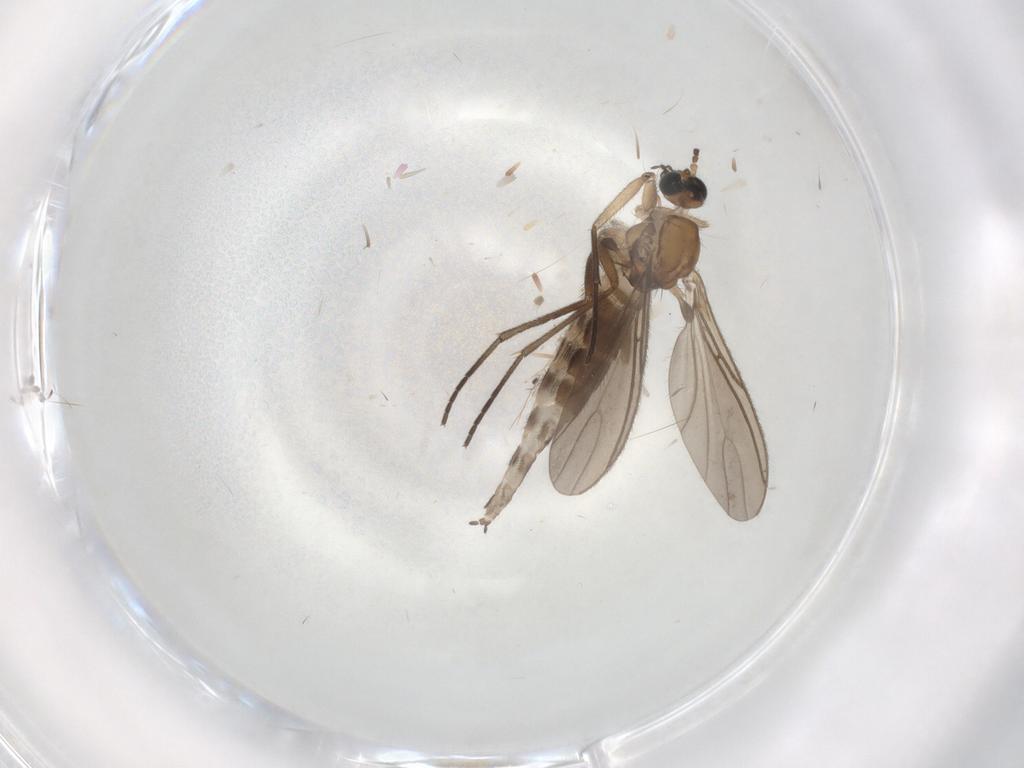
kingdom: Animalia
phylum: Arthropoda
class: Insecta
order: Diptera
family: Sciaridae
